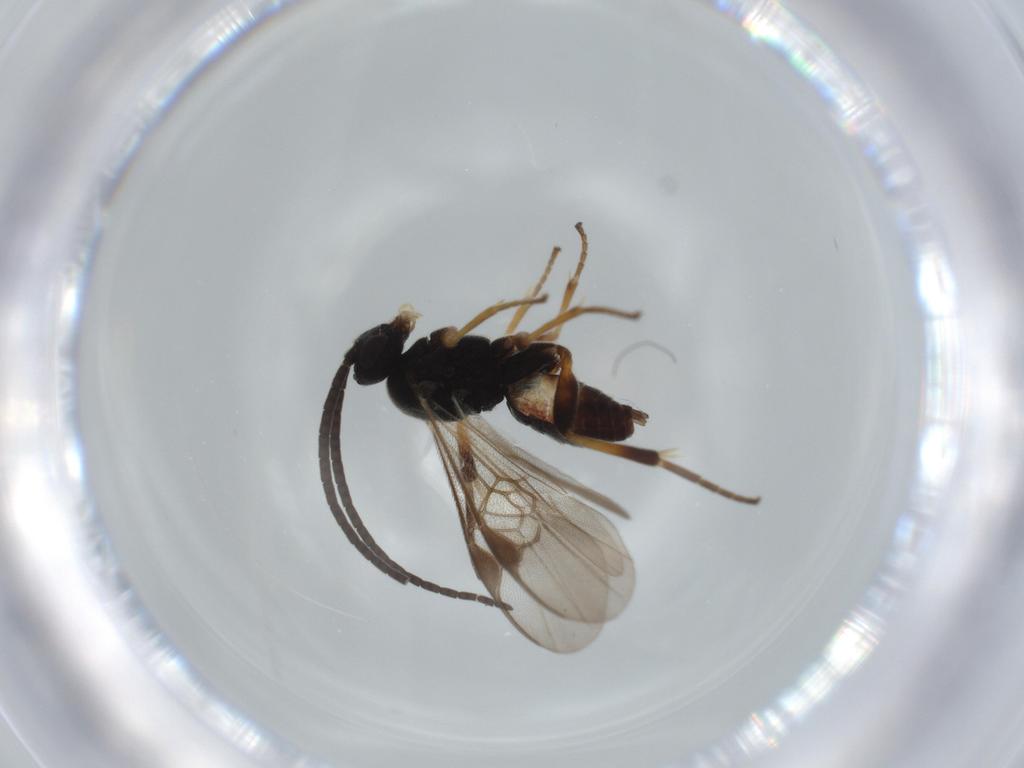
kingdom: Animalia
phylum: Arthropoda
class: Insecta
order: Hymenoptera
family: Braconidae
